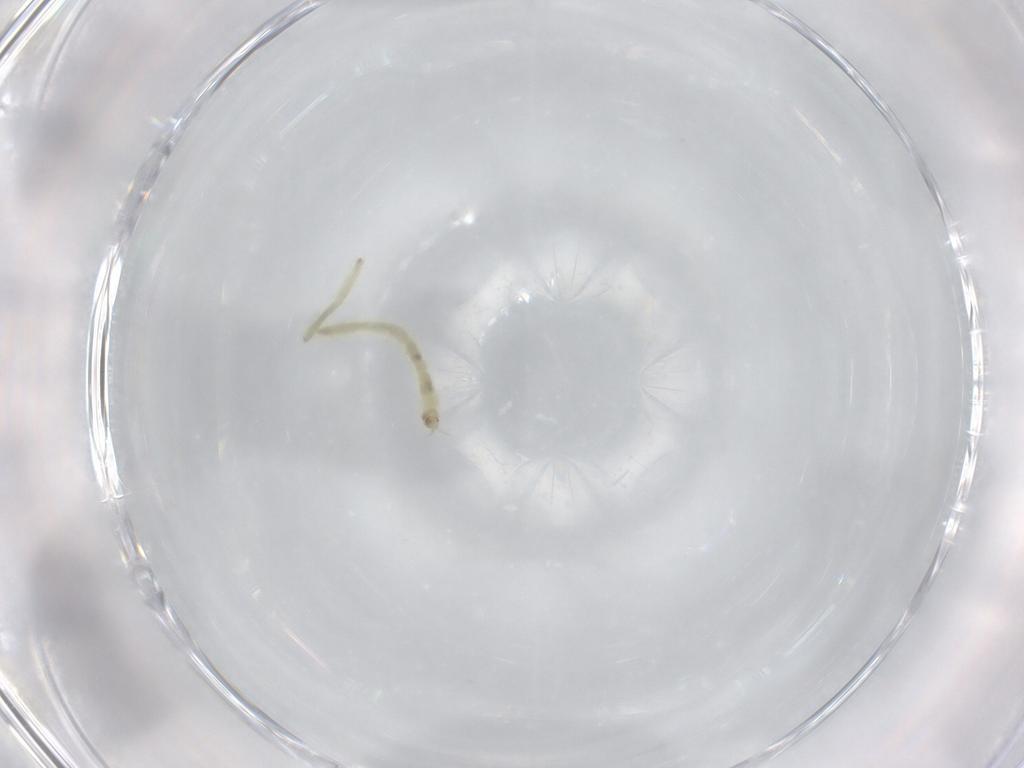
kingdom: Animalia
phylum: Arthropoda
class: Insecta
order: Diptera
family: Chironomidae
